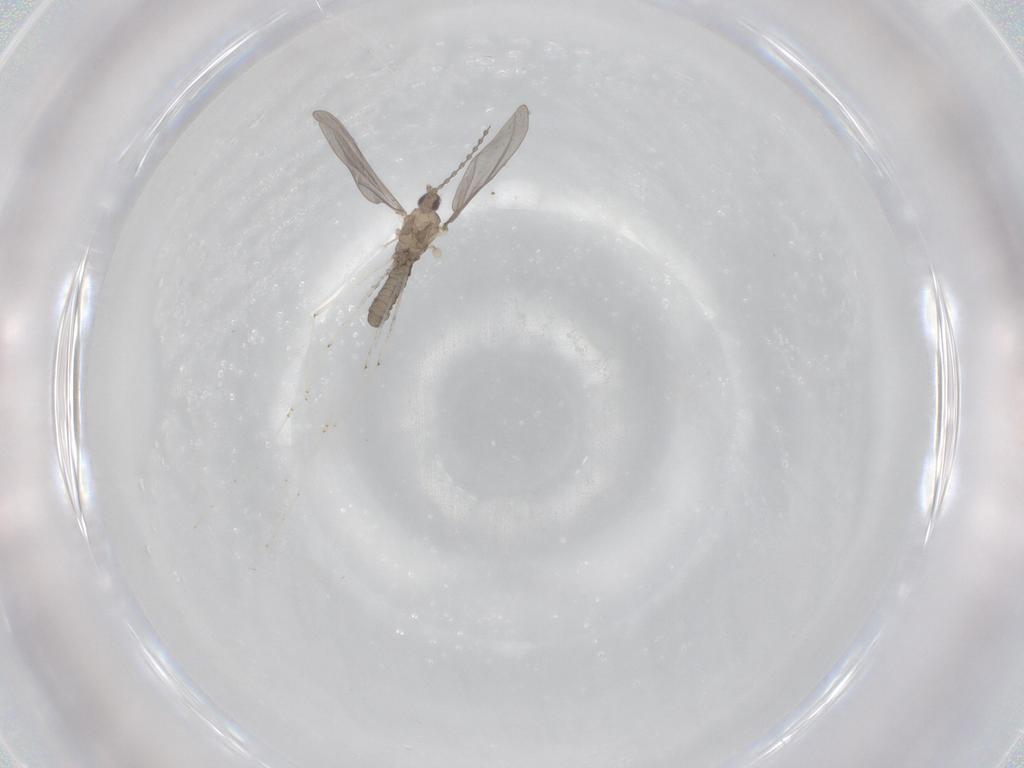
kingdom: Animalia
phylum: Arthropoda
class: Insecta
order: Diptera
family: Cecidomyiidae
